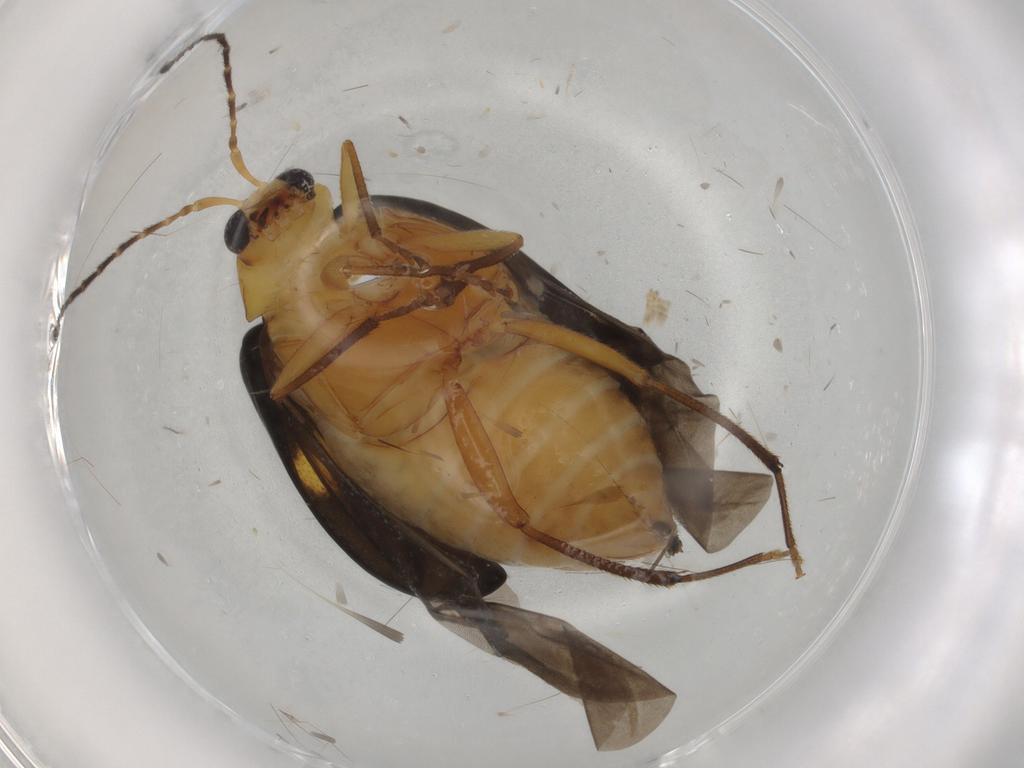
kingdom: Animalia
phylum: Arthropoda
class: Insecta
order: Coleoptera
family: Chrysomelidae
